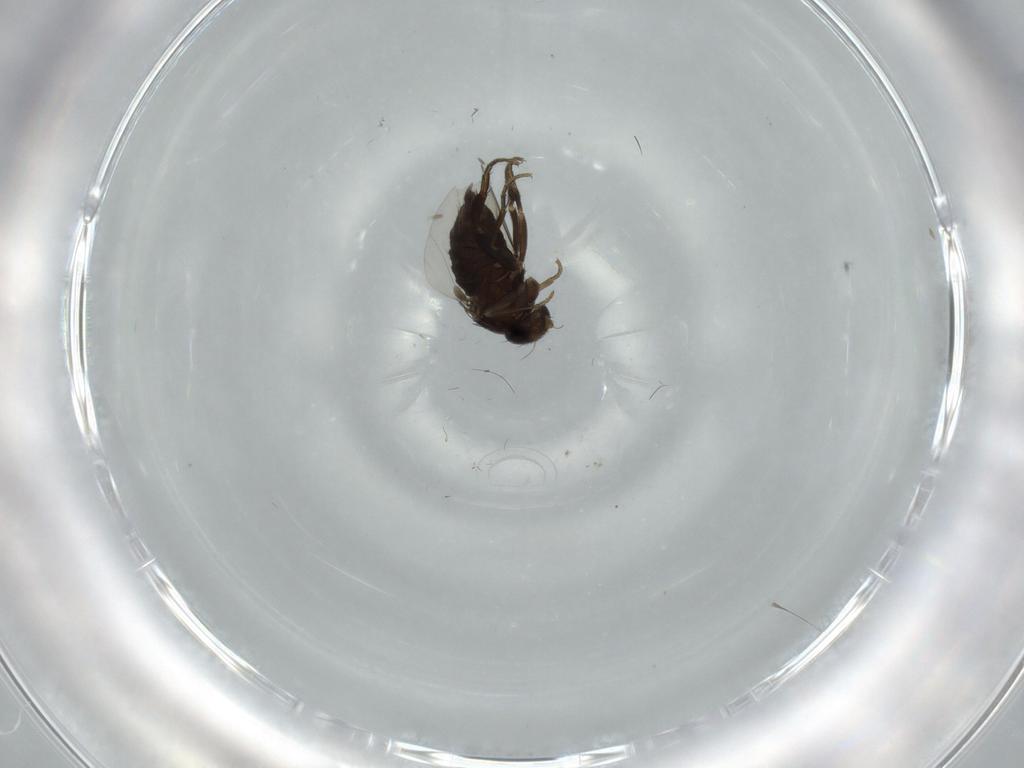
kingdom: Animalia
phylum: Arthropoda
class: Insecta
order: Diptera
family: Phoridae
